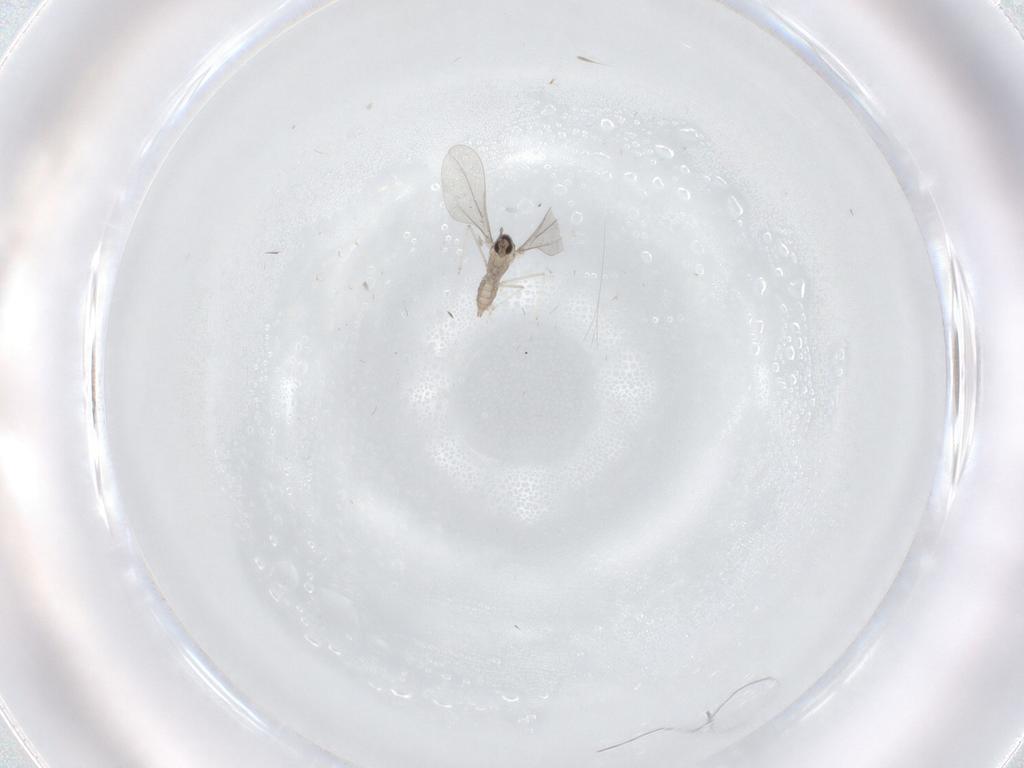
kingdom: Animalia
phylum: Arthropoda
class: Insecta
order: Diptera
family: Cecidomyiidae
